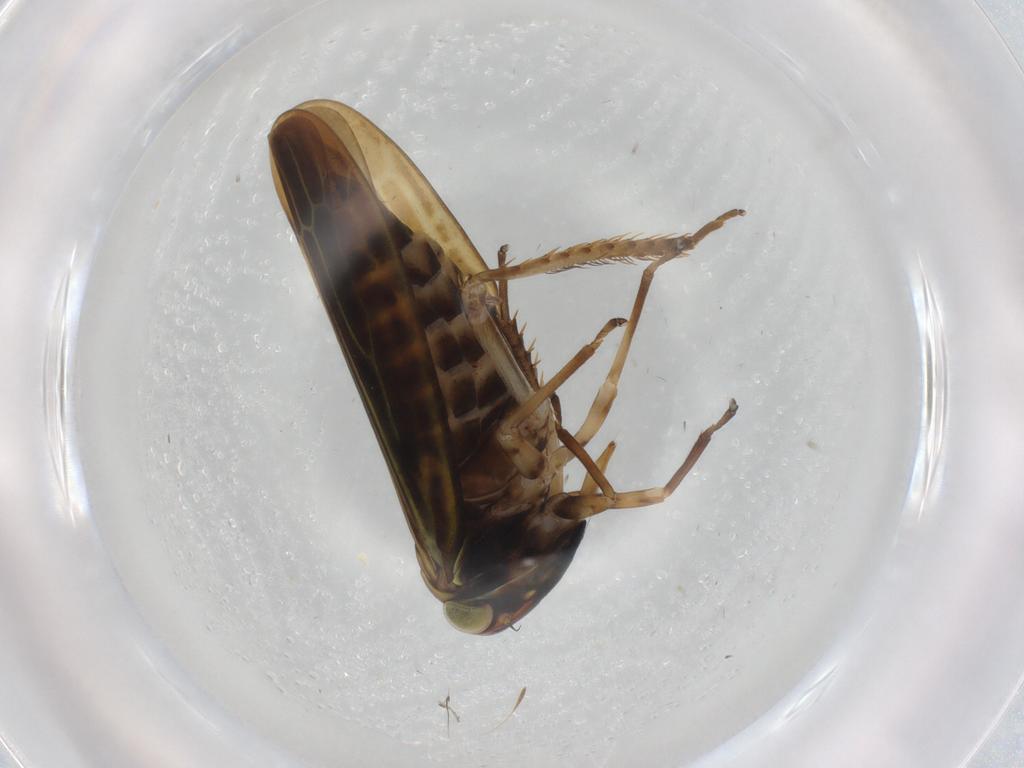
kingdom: Animalia
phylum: Arthropoda
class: Insecta
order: Hemiptera
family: Cicadellidae
